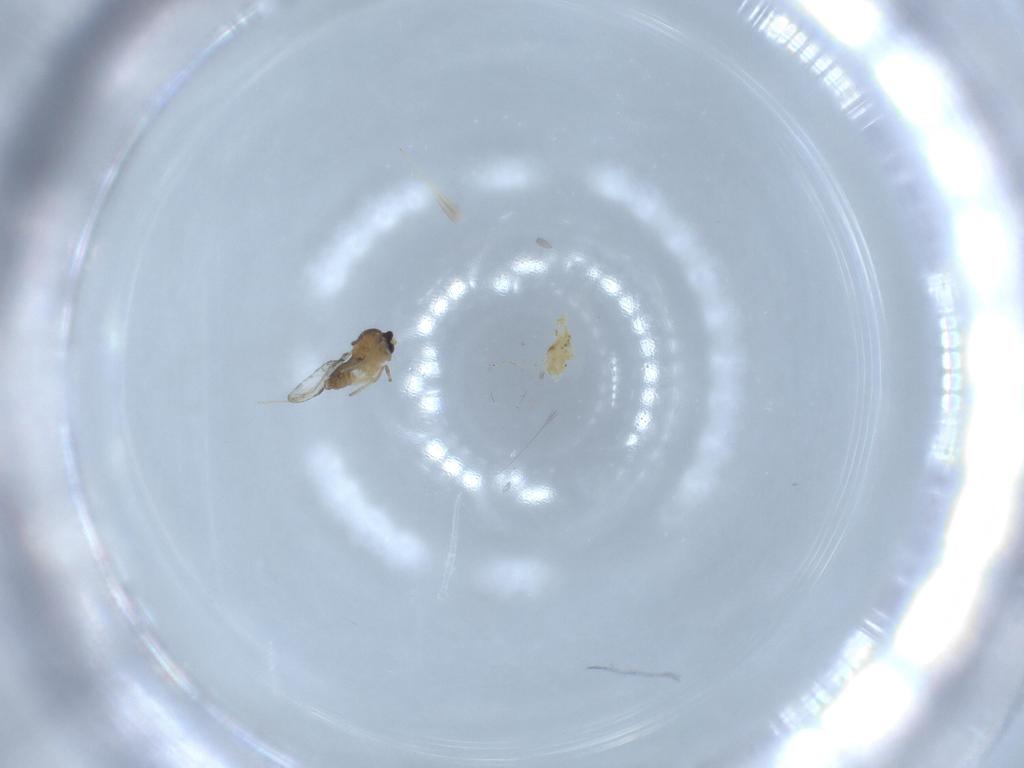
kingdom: Animalia
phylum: Arthropoda
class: Insecta
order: Diptera
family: Cecidomyiidae
